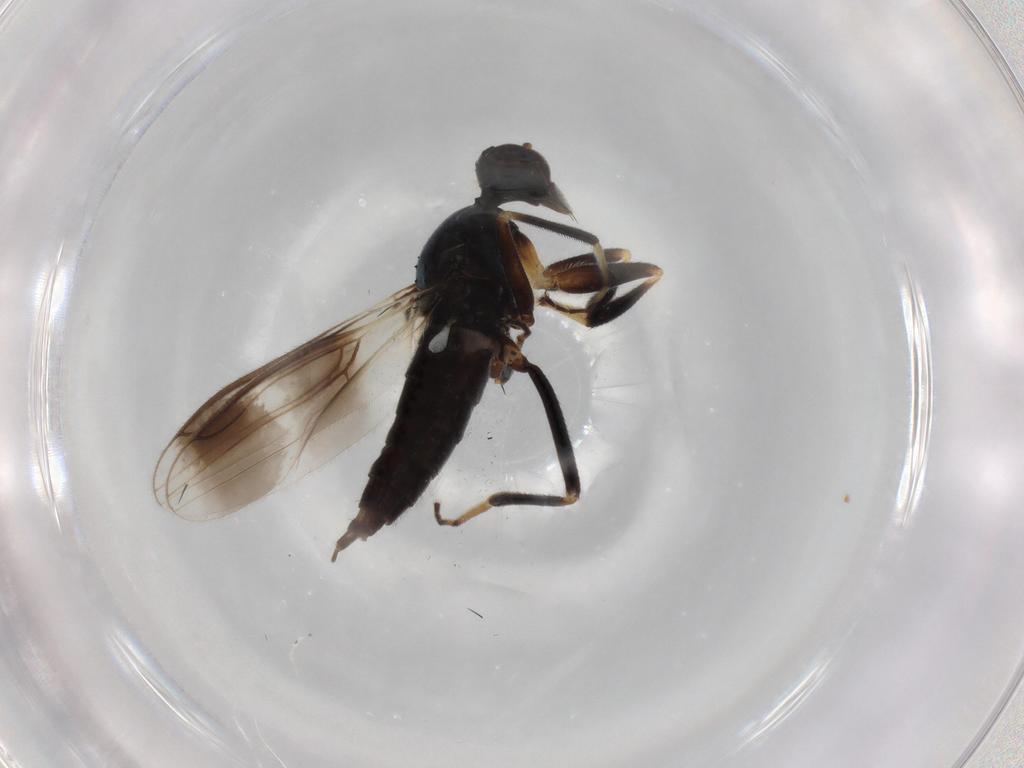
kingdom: Animalia
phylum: Arthropoda
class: Insecta
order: Diptera
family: Hybotidae
